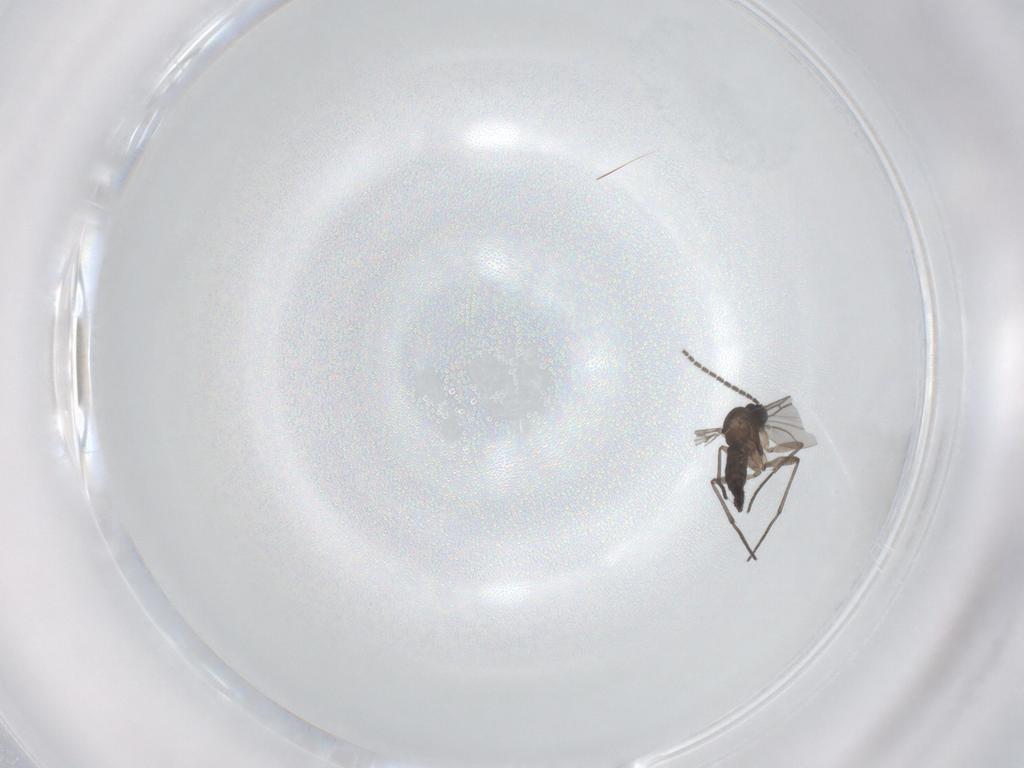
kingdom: Animalia
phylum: Arthropoda
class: Insecta
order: Diptera
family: Sciaridae
